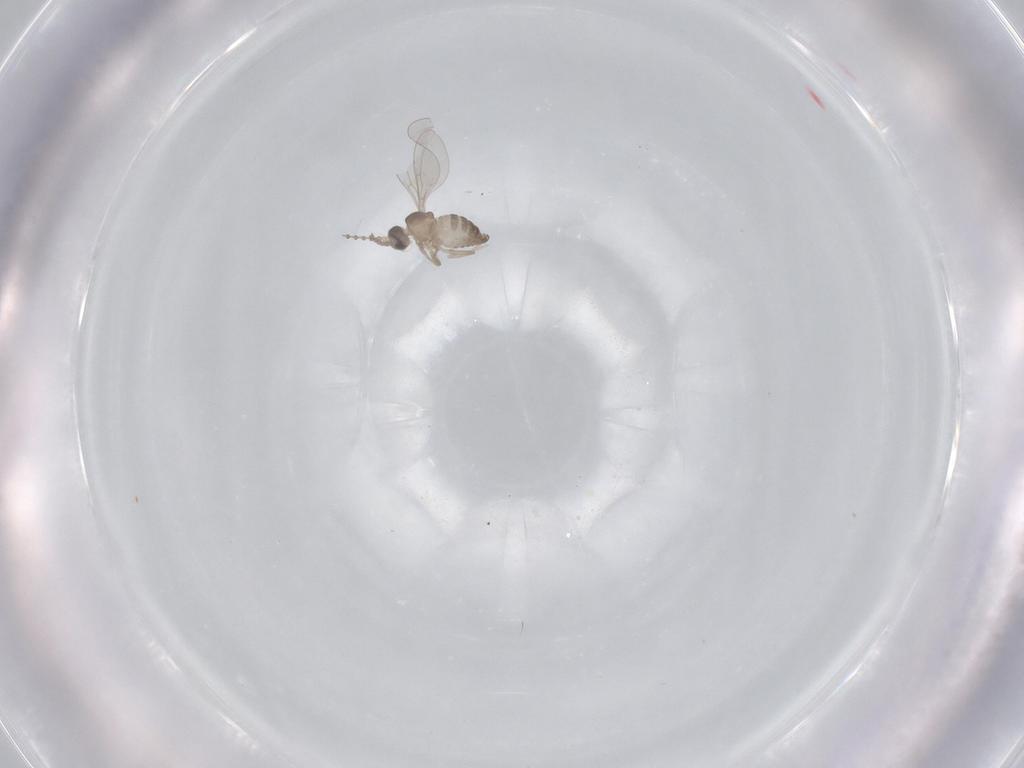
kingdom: Animalia
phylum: Arthropoda
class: Insecta
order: Diptera
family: Cecidomyiidae
